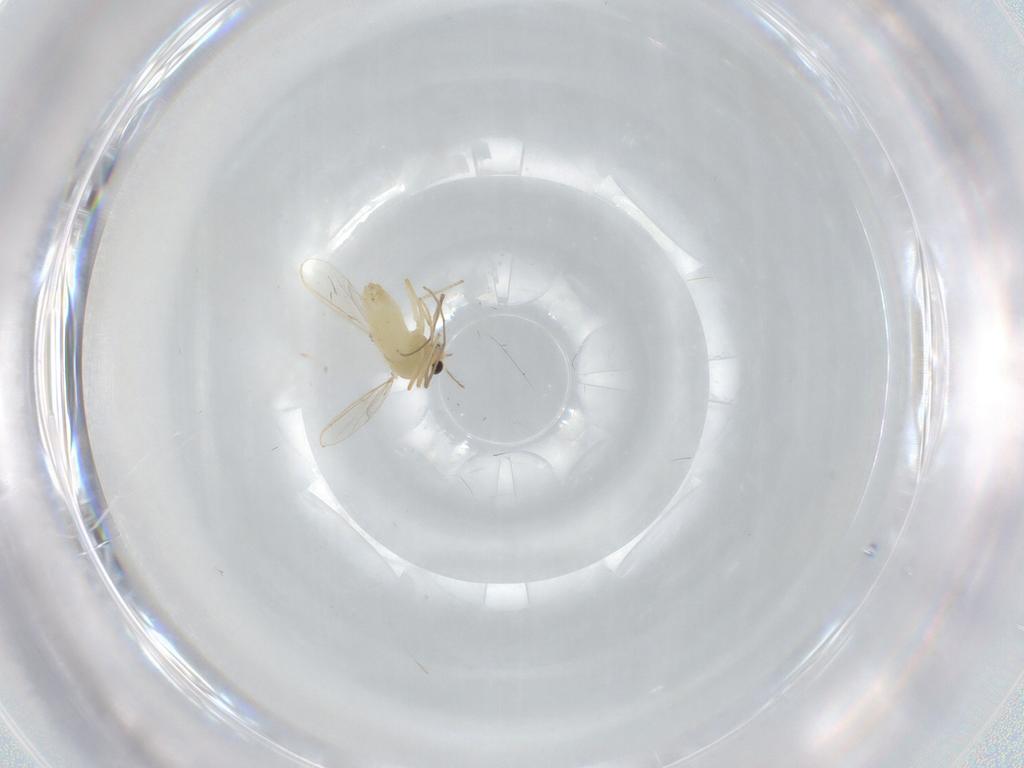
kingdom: Animalia
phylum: Arthropoda
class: Insecta
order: Diptera
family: Chironomidae
